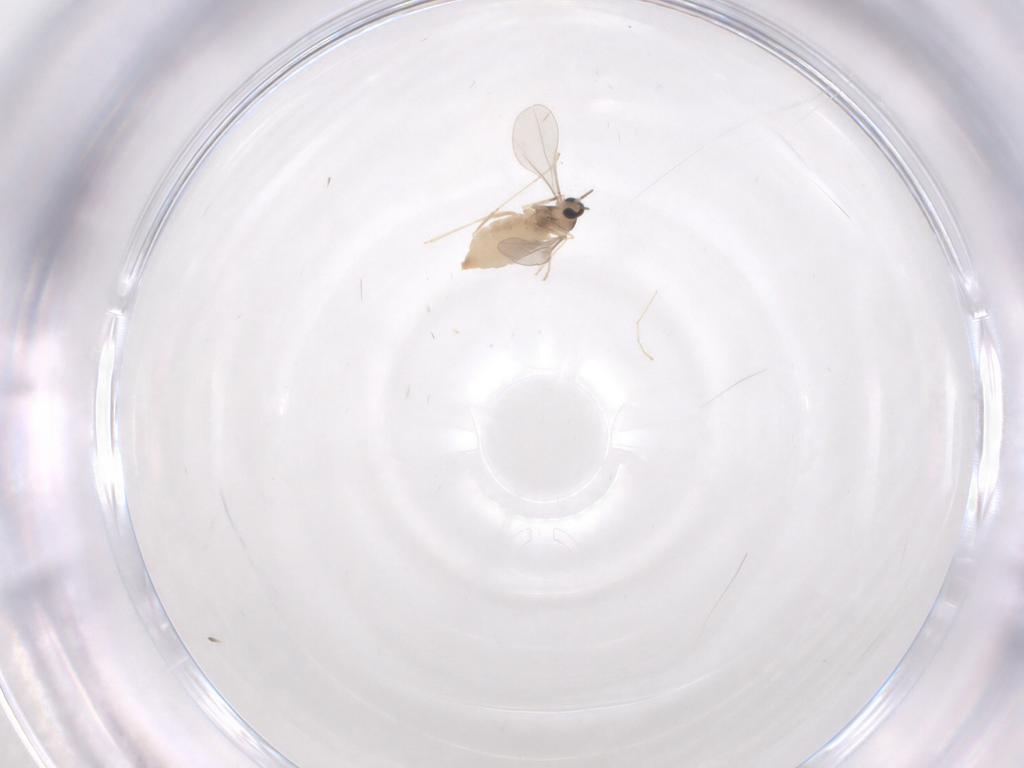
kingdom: Animalia
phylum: Arthropoda
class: Insecta
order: Diptera
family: Cecidomyiidae
